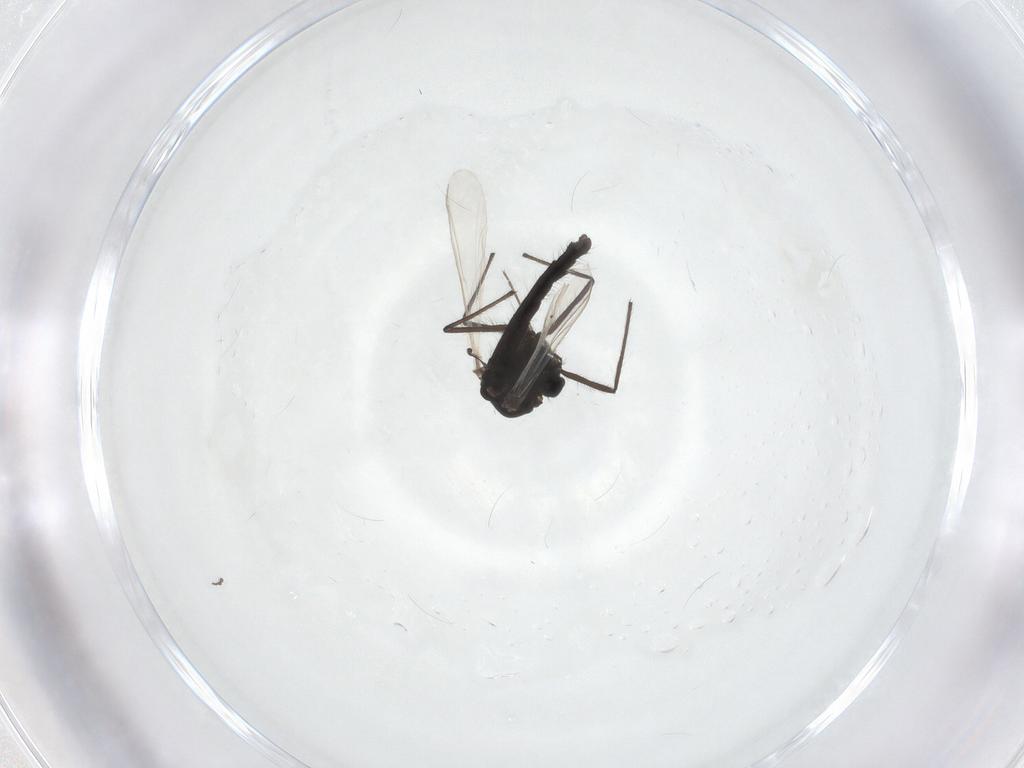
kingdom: Animalia
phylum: Arthropoda
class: Insecta
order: Diptera
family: Chironomidae
